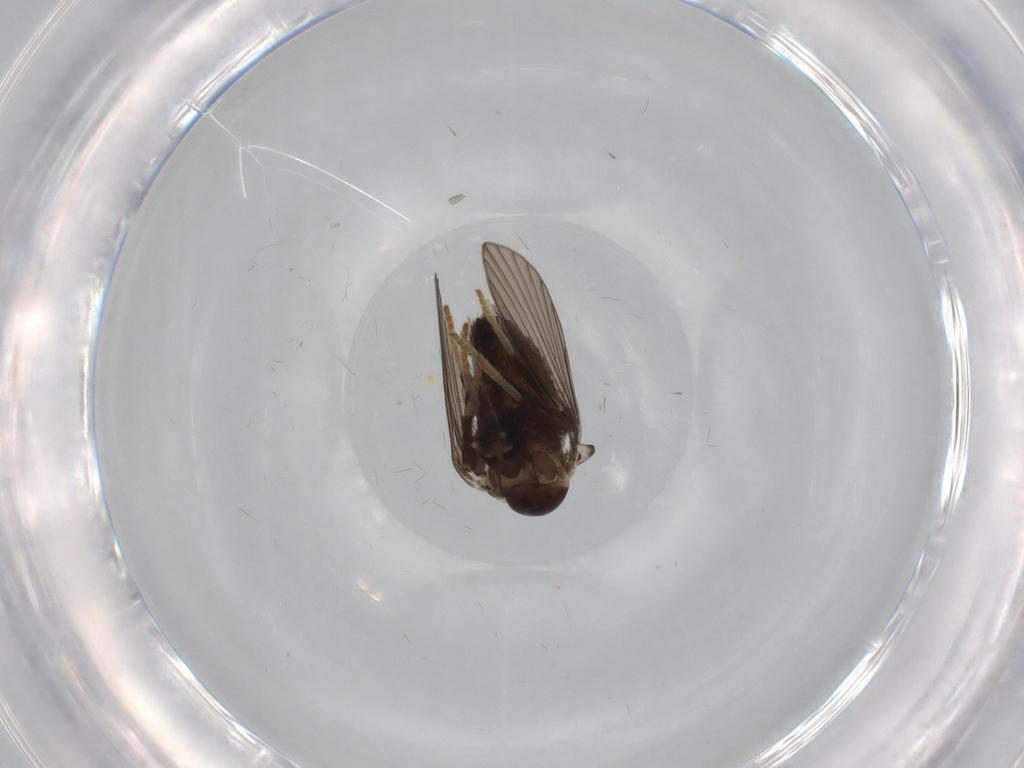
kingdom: Animalia
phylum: Arthropoda
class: Insecta
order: Diptera
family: Psychodidae
